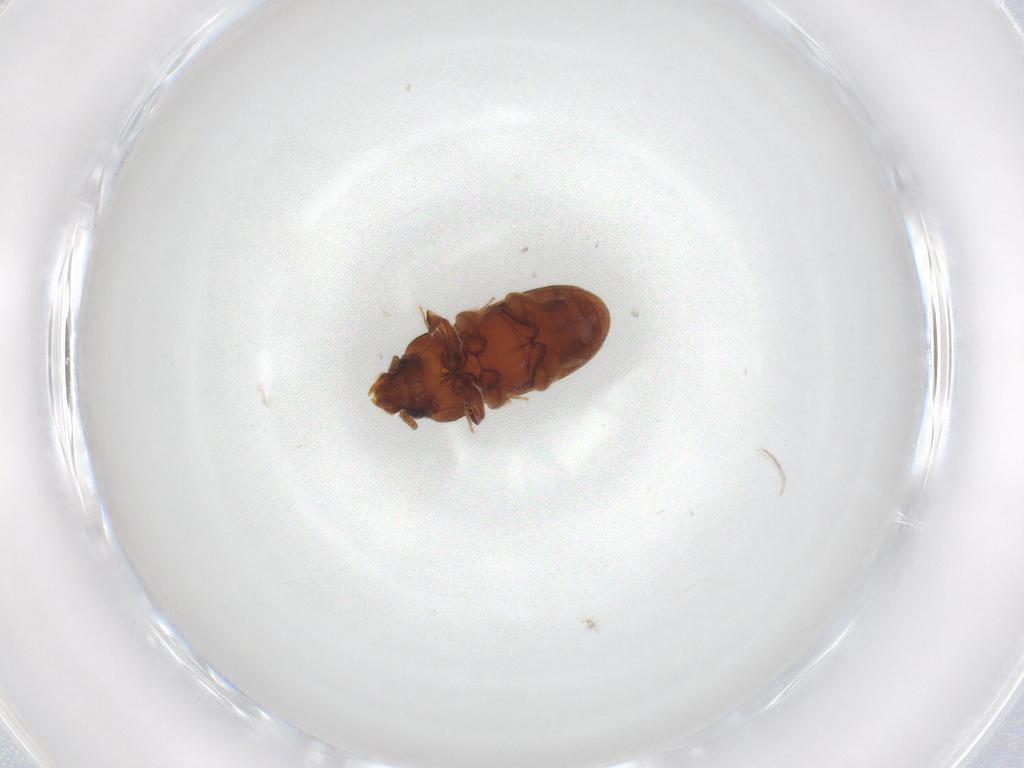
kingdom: Animalia
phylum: Arthropoda
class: Insecta
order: Coleoptera
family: Heteroceridae
